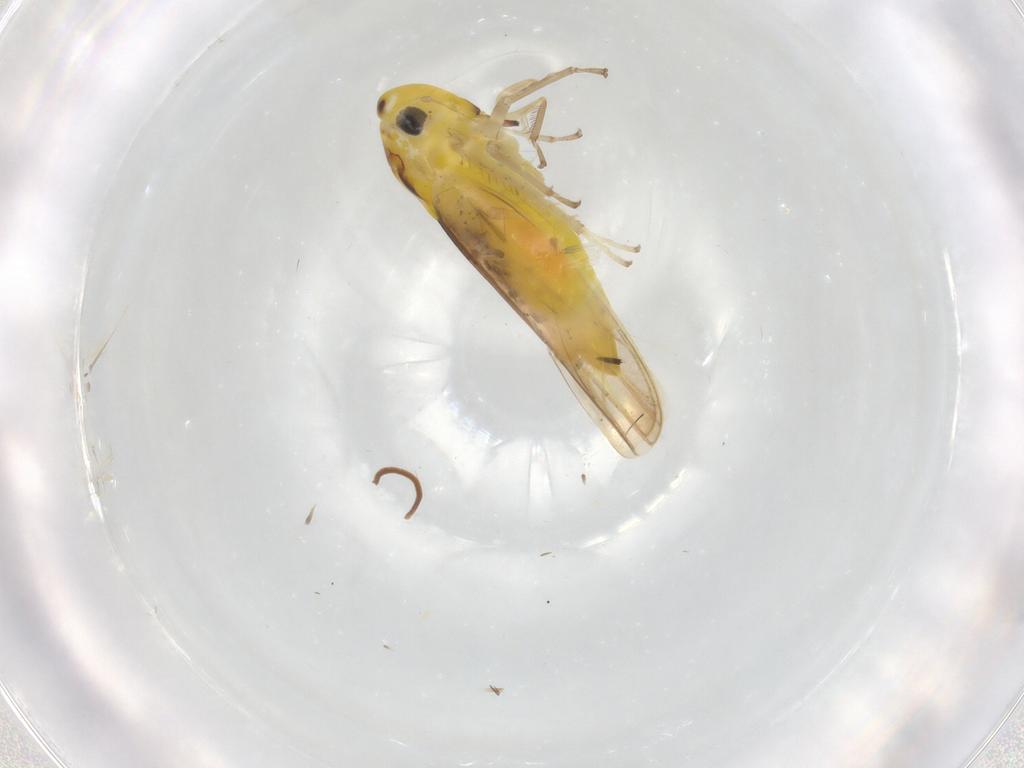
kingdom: Animalia
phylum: Arthropoda
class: Insecta
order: Hemiptera
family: Cicadellidae
